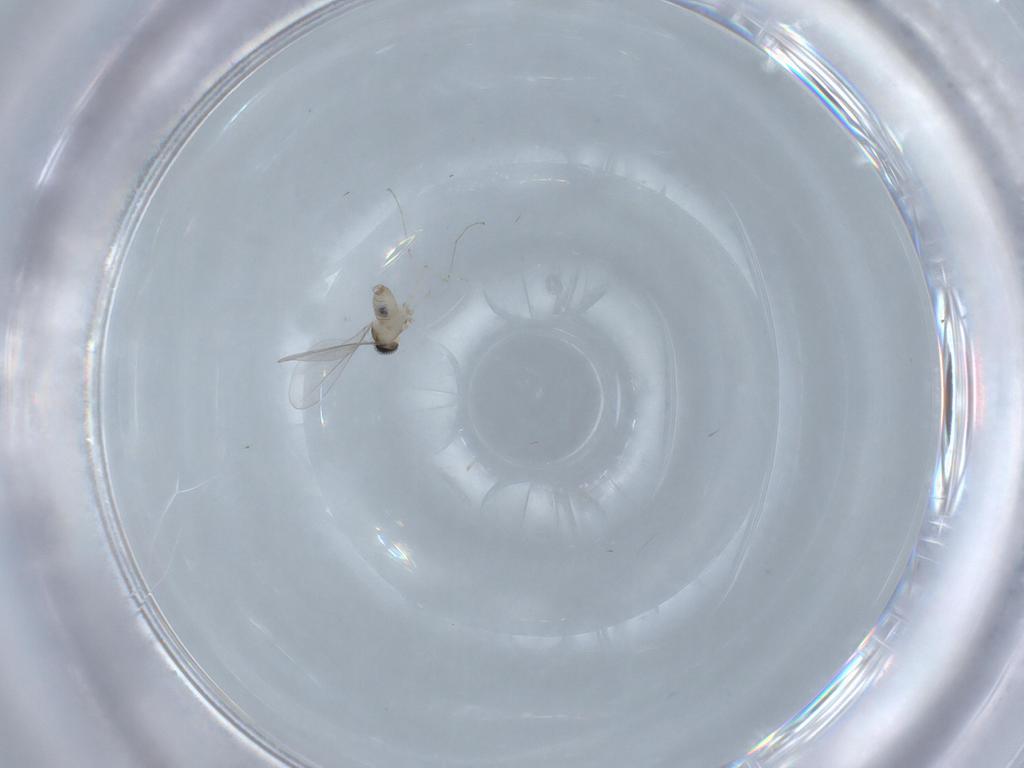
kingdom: Animalia
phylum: Arthropoda
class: Insecta
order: Diptera
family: Cecidomyiidae
